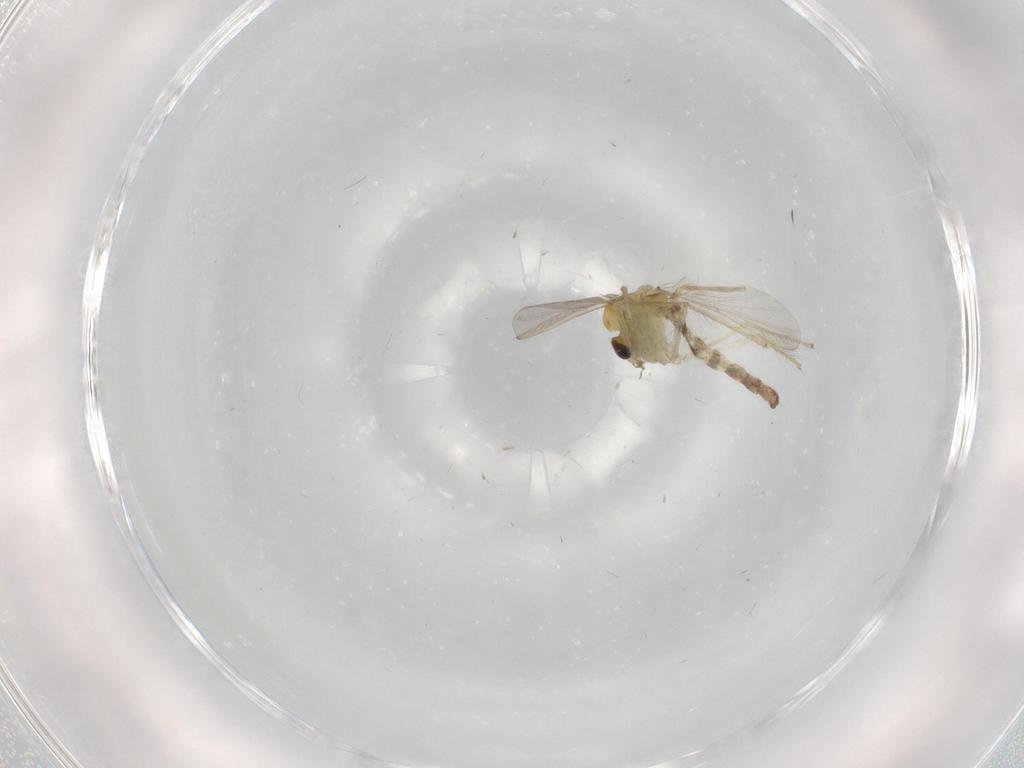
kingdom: Animalia
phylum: Arthropoda
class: Insecta
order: Diptera
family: Chironomidae
